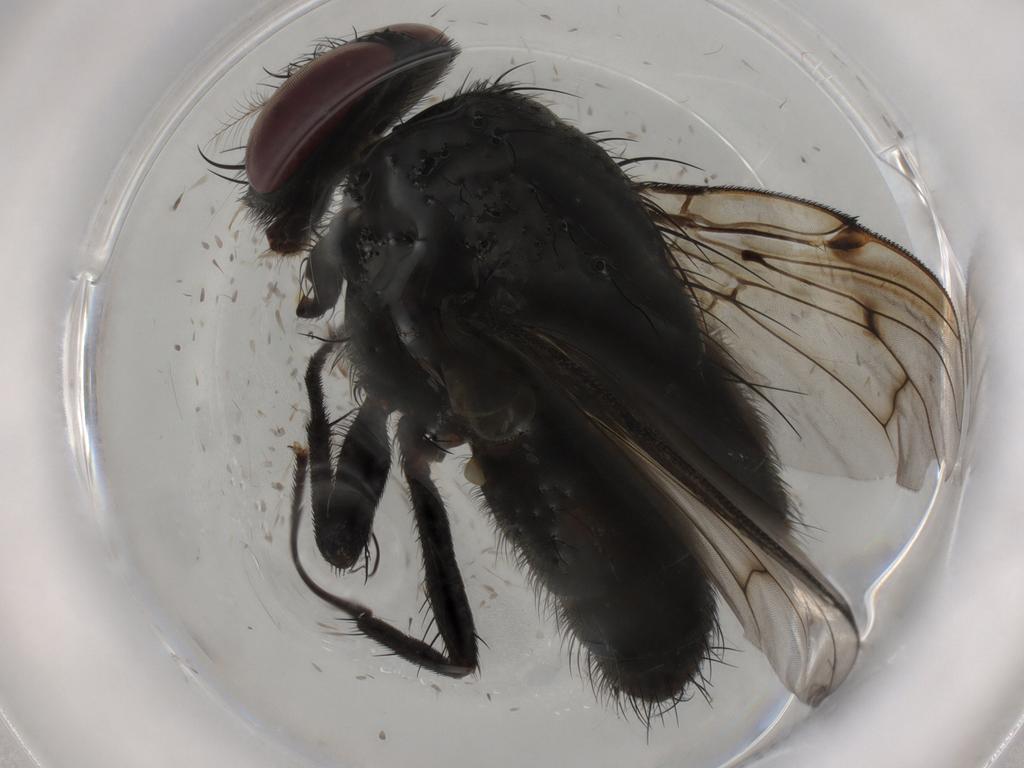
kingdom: Animalia
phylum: Arthropoda
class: Insecta
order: Diptera
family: Muscidae
